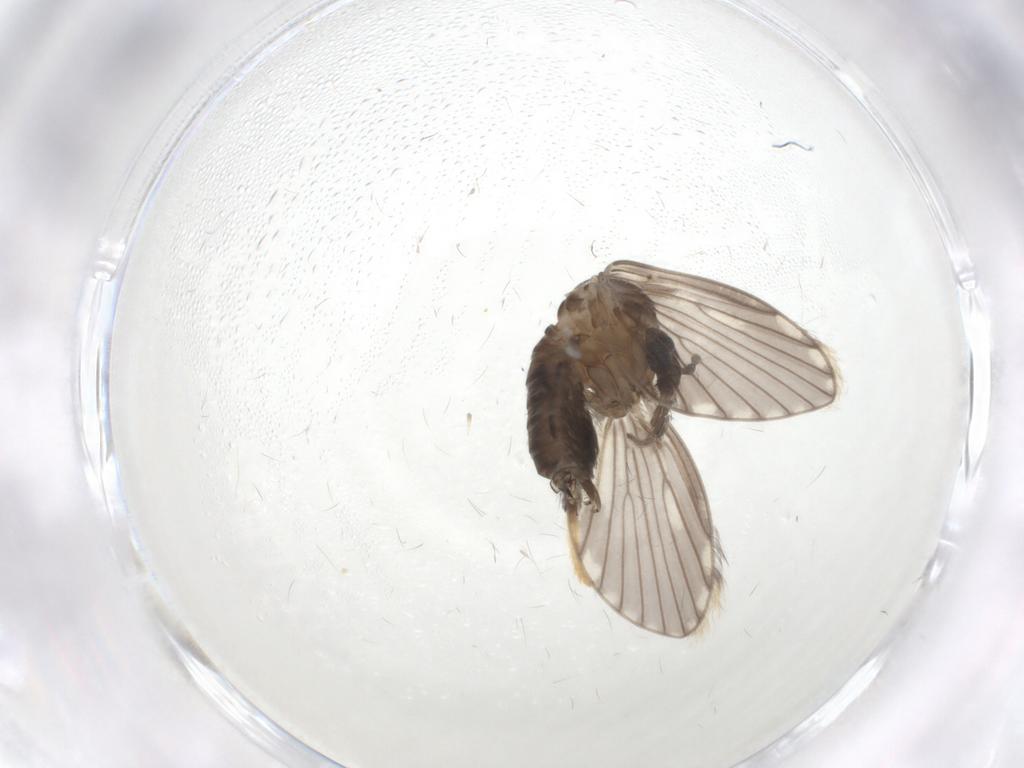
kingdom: Animalia
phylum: Arthropoda
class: Insecta
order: Diptera
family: Psychodidae
